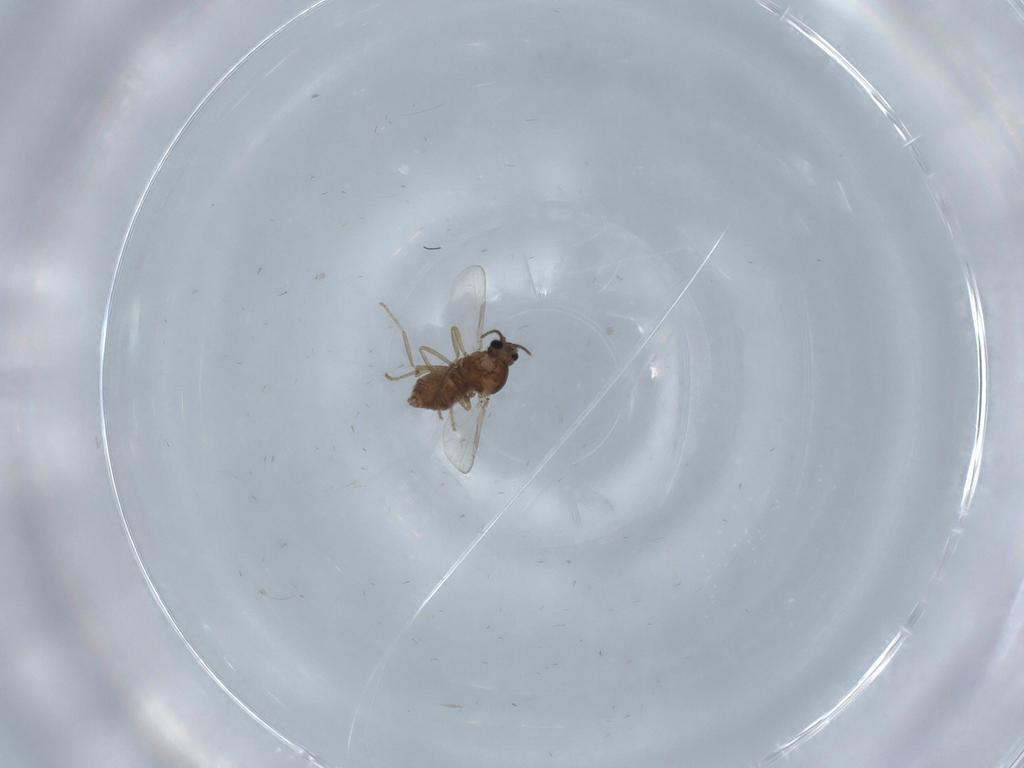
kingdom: Animalia
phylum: Arthropoda
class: Insecta
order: Diptera
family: Ceratopogonidae
